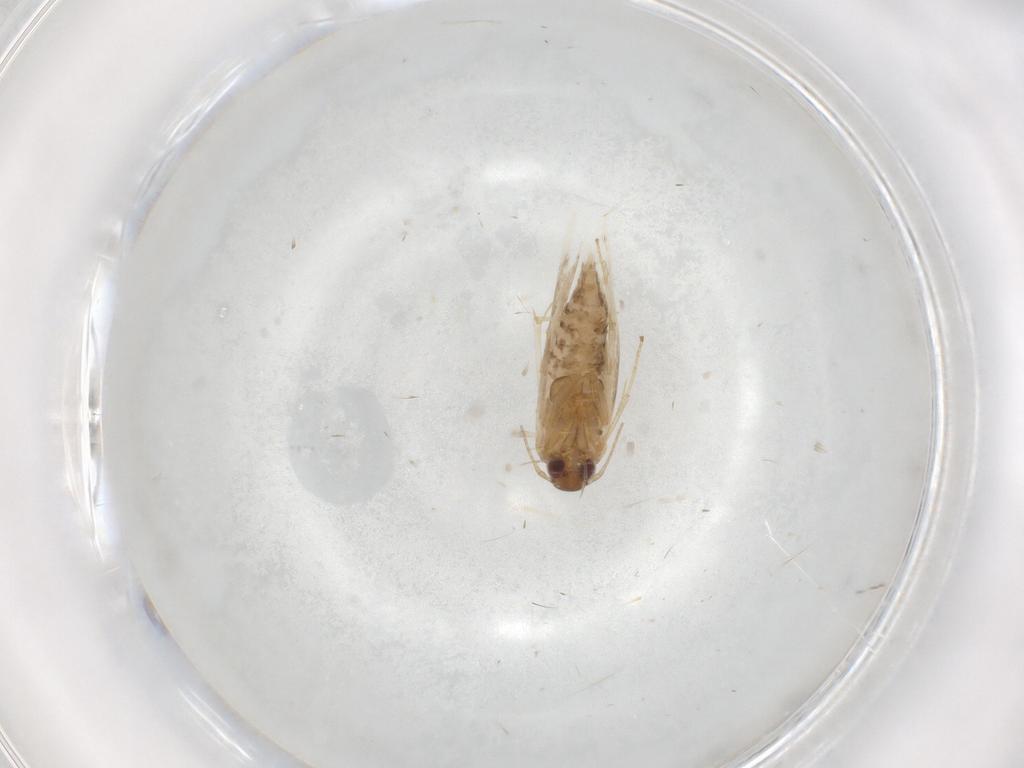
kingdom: Animalia
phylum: Arthropoda
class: Insecta
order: Lepidoptera
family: Gelechiidae
